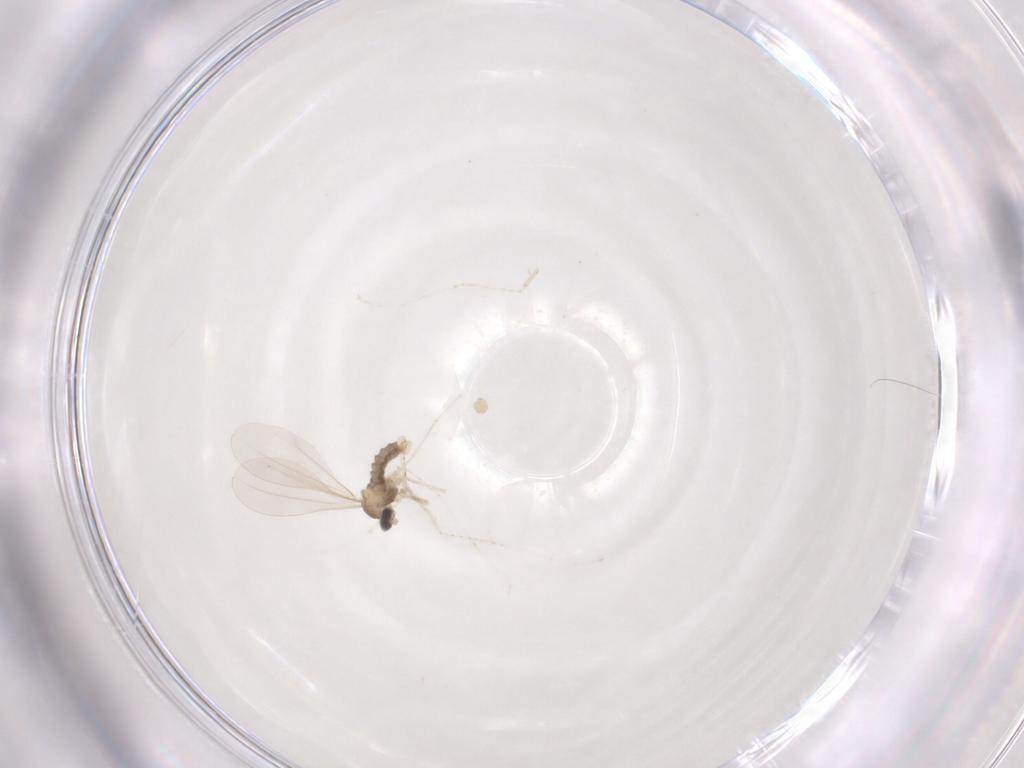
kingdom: Animalia
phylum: Arthropoda
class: Insecta
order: Diptera
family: Cecidomyiidae
